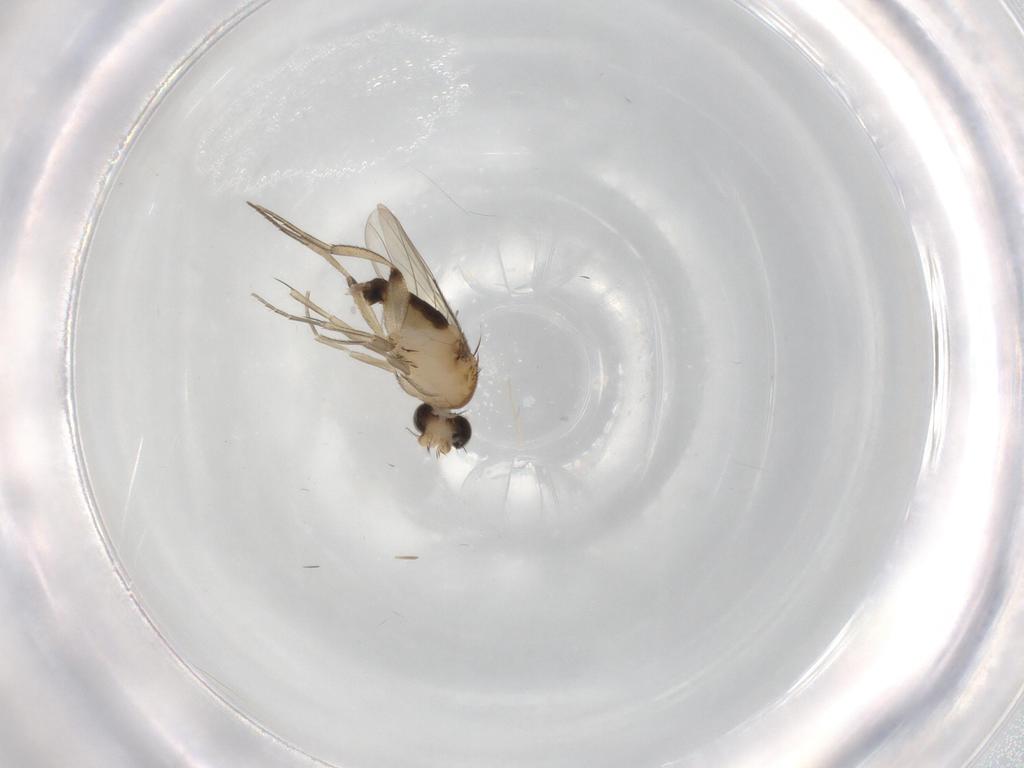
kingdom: Animalia
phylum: Arthropoda
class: Insecta
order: Diptera
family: Phoridae
